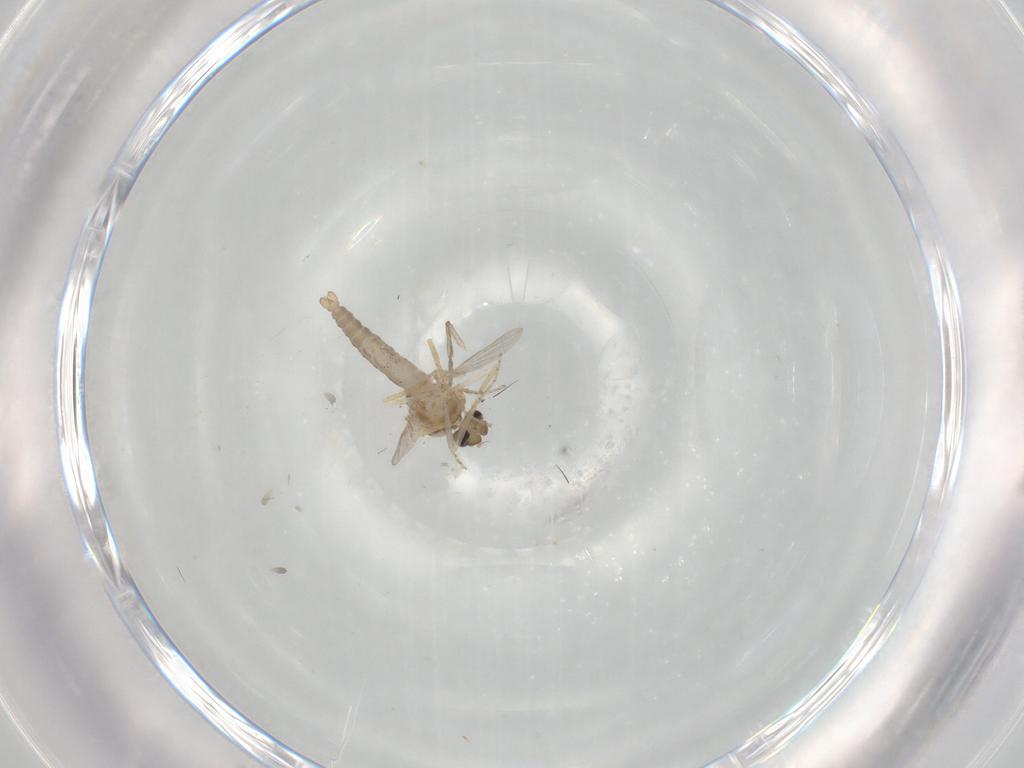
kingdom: Animalia
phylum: Arthropoda
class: Insecta
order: Diptera
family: Ceratopogonidae
